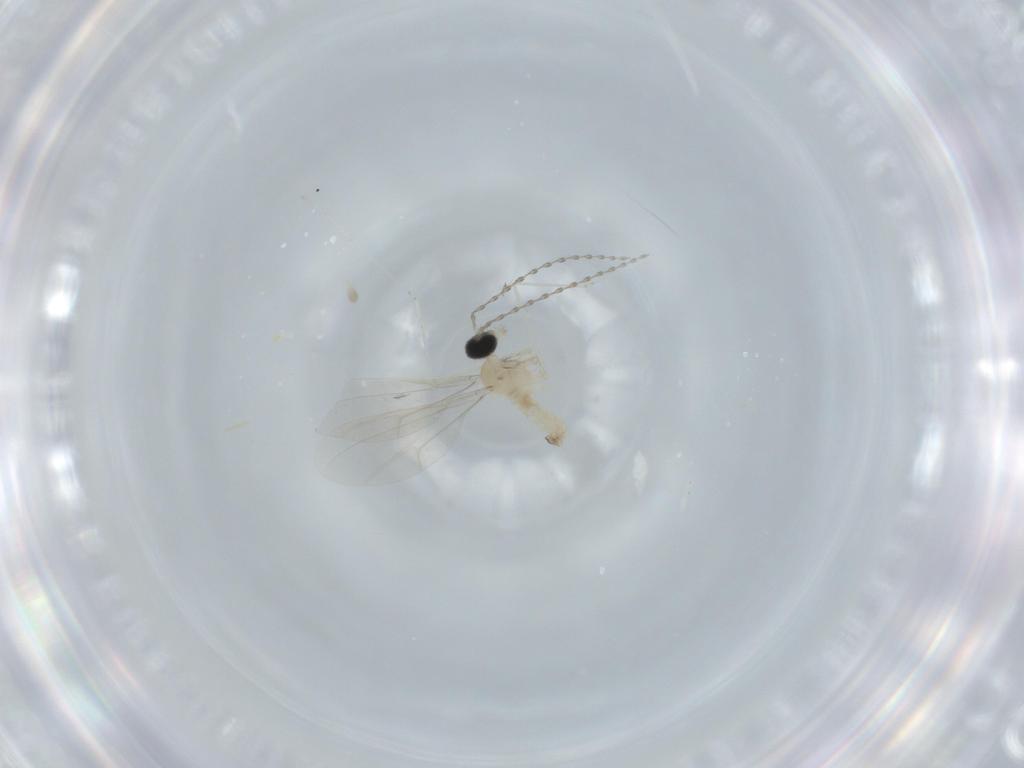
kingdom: Animalia
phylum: Arthropoda
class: Insecta
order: Diptera
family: Cecidomyiidae
